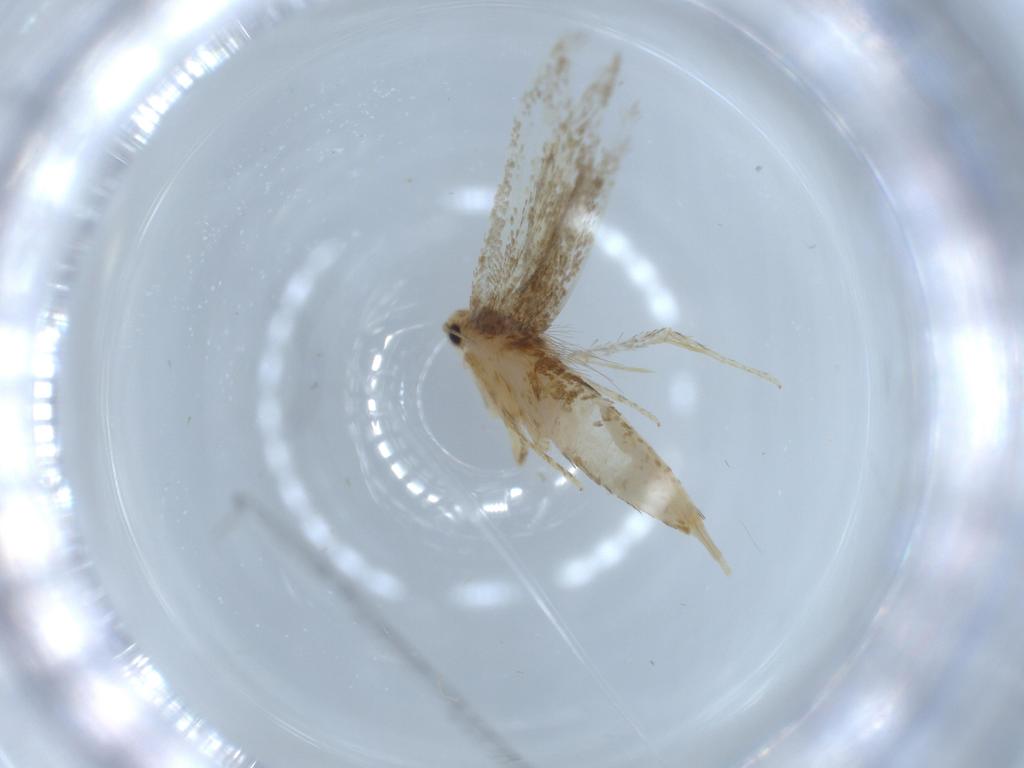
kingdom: Animalia
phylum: Arthropoda
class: Insecta
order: Lepidoptera
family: Tineidae
